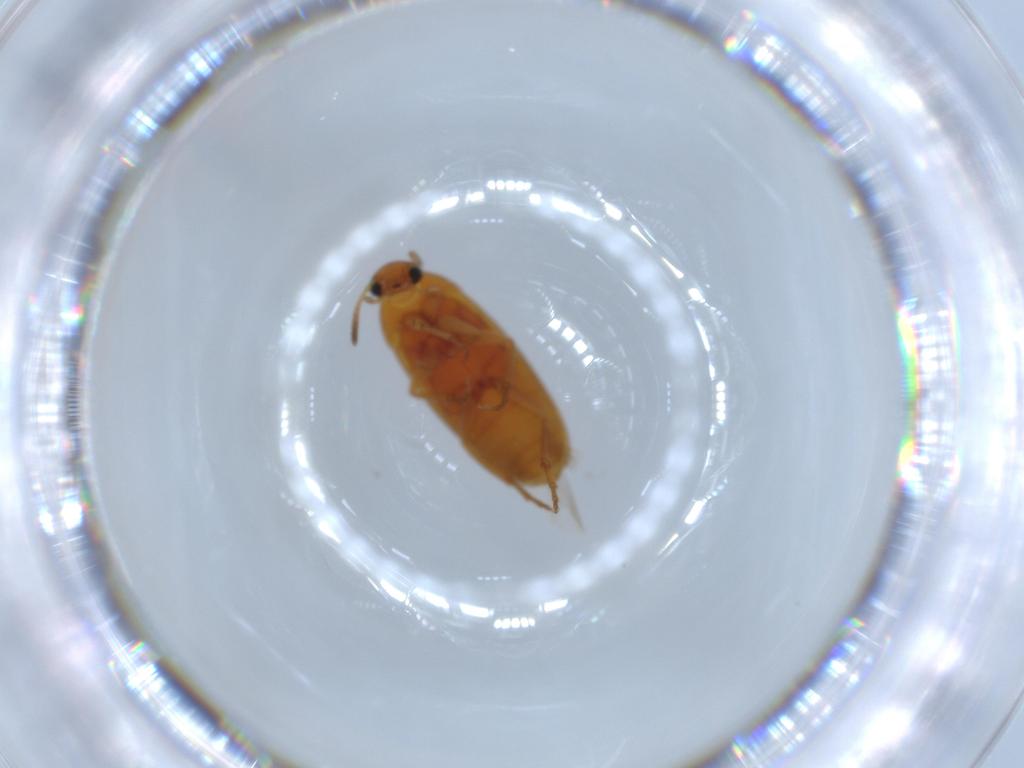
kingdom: Animalia
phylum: Arthropoda
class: Insecta
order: Coleoptera
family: Scraptiidae
